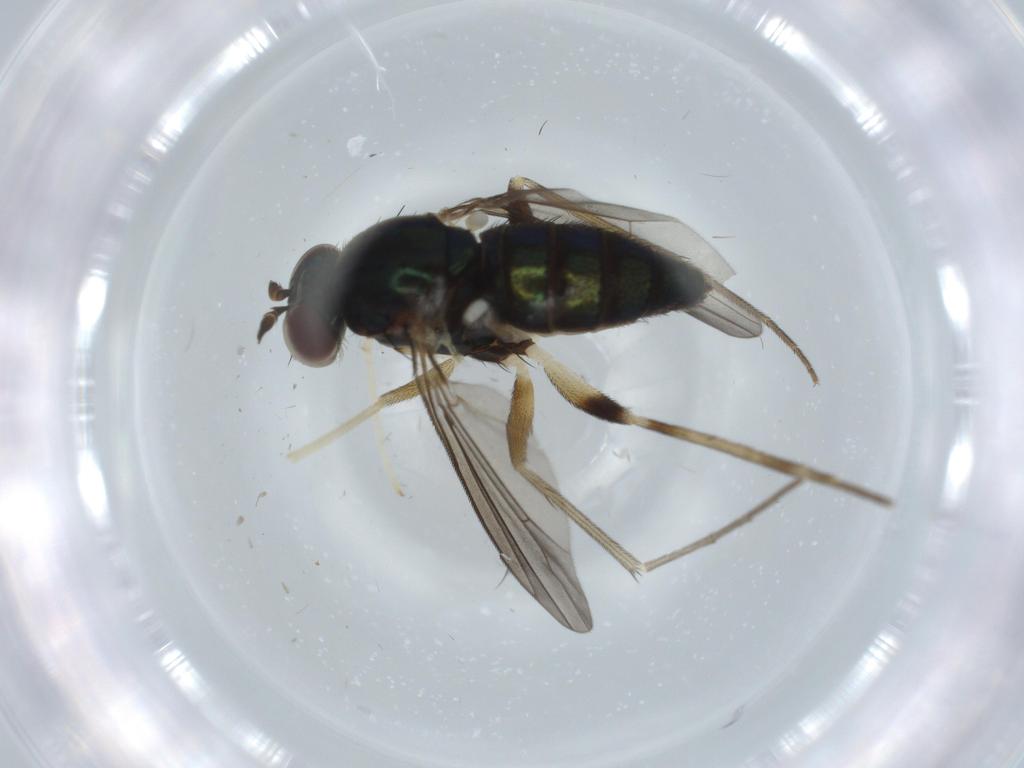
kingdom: Animalia
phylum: Arthropoda
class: Insecta
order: Diptera
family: Dolichopodidae
